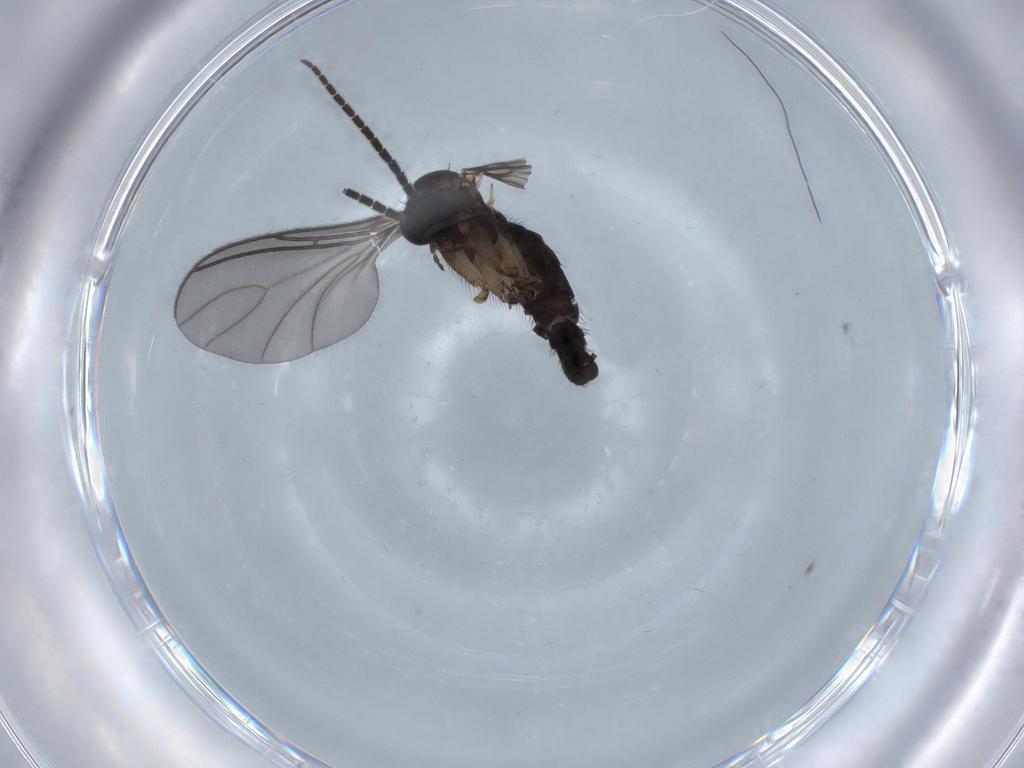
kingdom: Animalia
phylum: Arthropoda
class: Insecta
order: Diptera
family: Sciaridae
